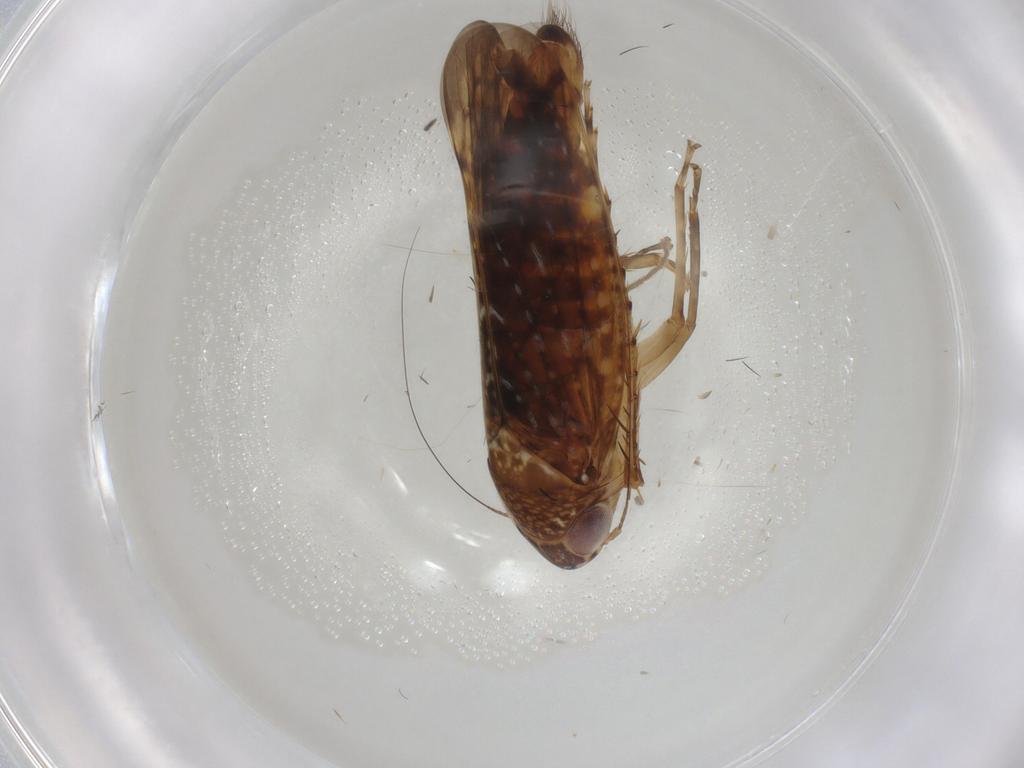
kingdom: Animalia
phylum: Arthropoda
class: Insecta
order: Hemiptera
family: Cicadellidae
